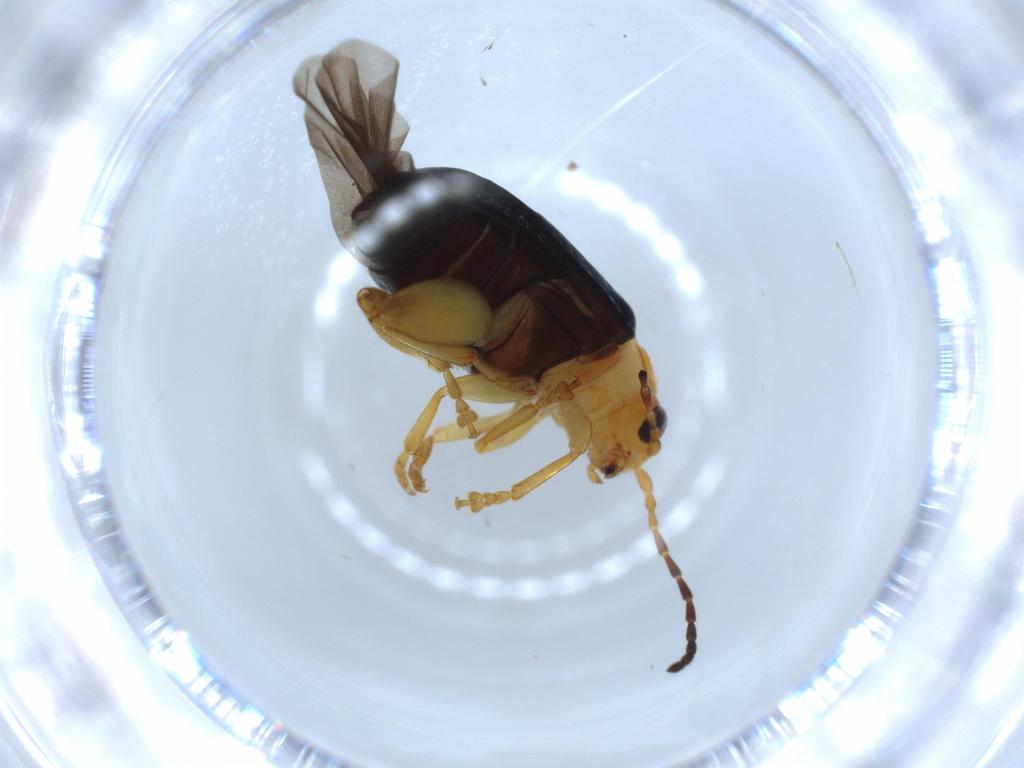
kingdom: Animalia
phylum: Arthropoda
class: Insecta
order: Coleoptera
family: Chrysomelidae
